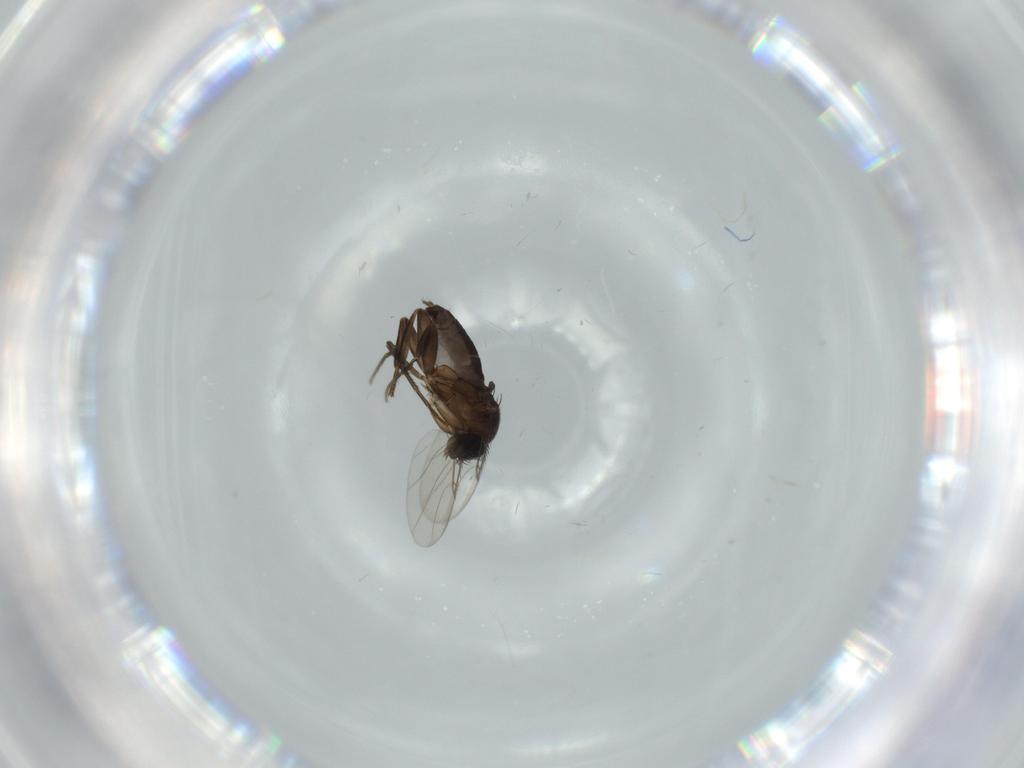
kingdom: Animalia
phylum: Arthropoda
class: Insecta
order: Diptera
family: Phoridae
